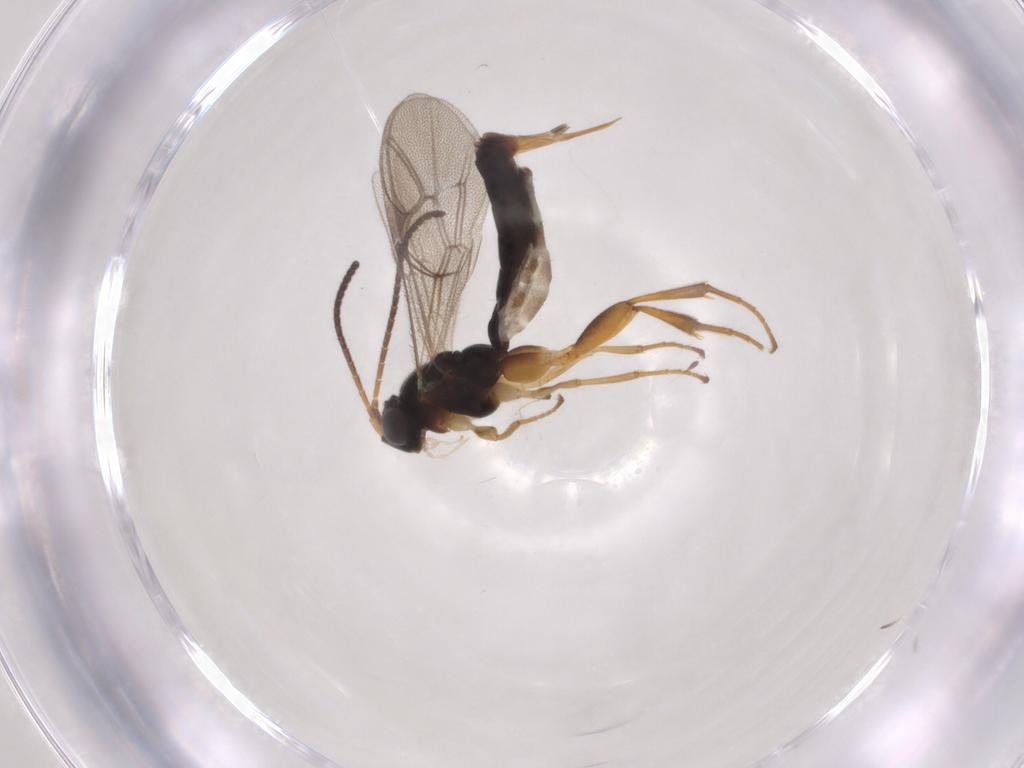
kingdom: Animalia
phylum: Arthropoda
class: Insecta
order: Hymenoptera
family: Ichneumonidae
